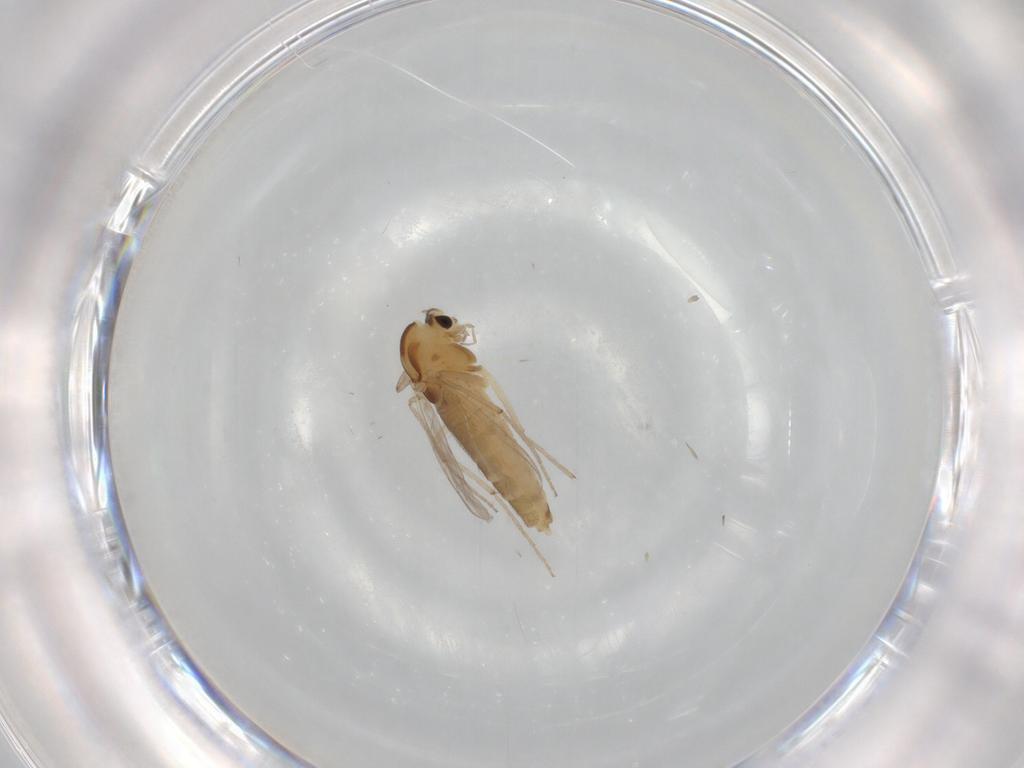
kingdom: Animalia
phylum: Arthropoda
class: Insecta
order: Diptera
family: Chironomidae
